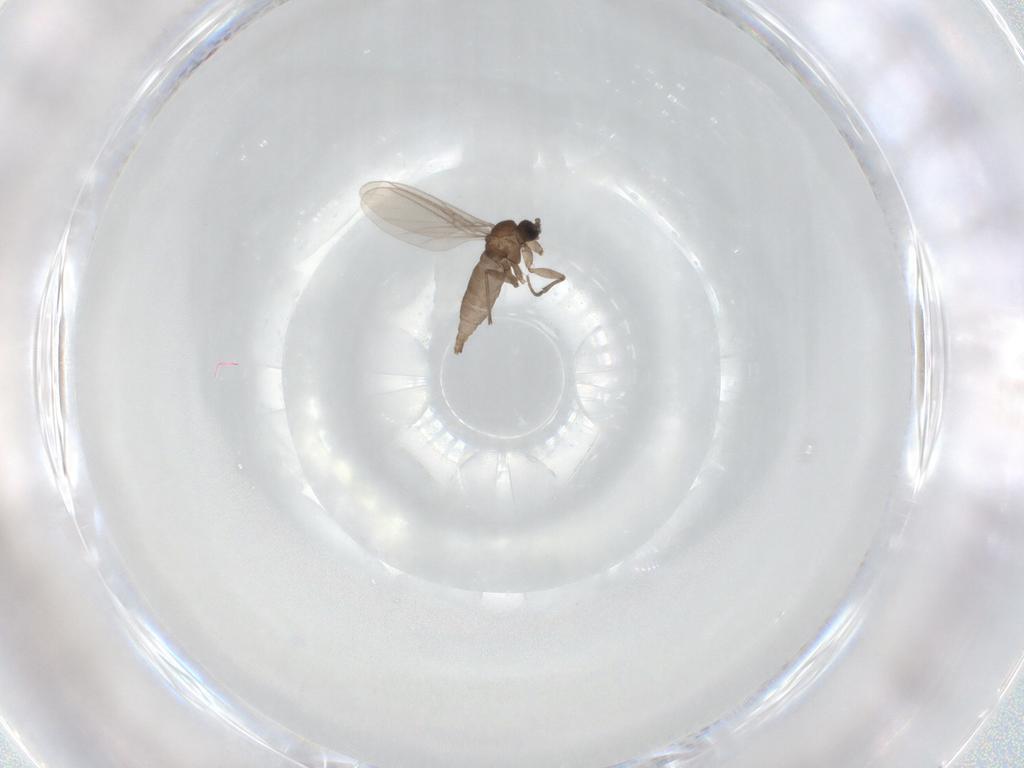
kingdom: Animalia
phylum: Arthropoda
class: Insecta
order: Diptera
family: Sciaridae
